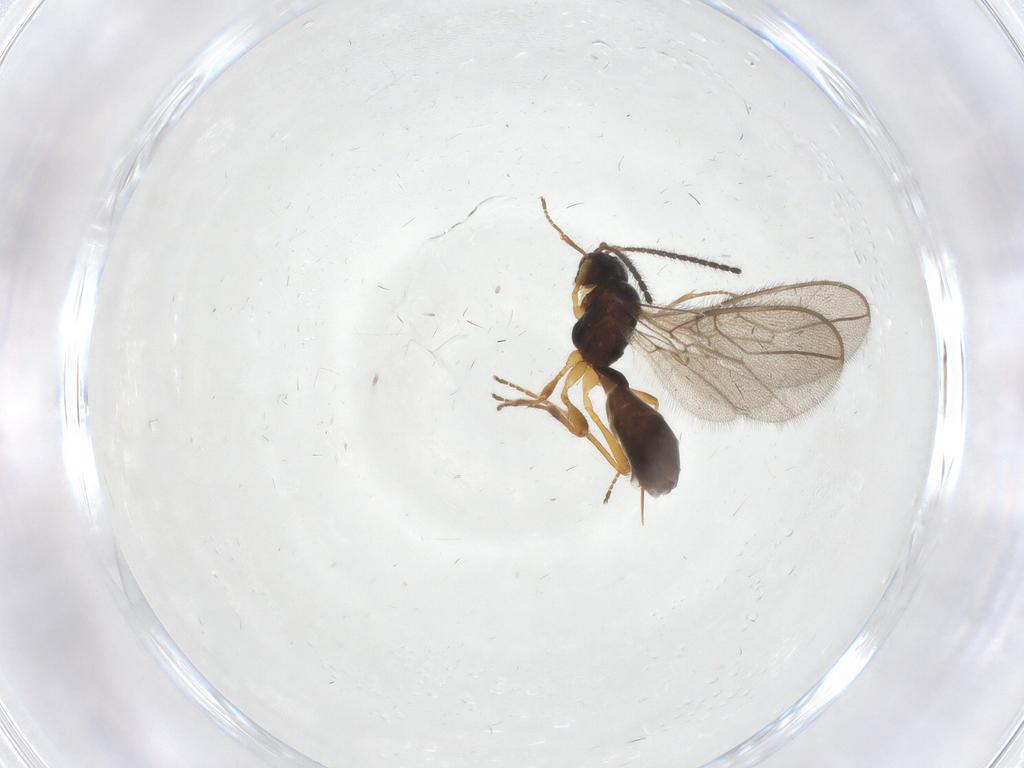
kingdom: Animalia
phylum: Arthropoda
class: Insecta
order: Hymenoptera
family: Braconidae
